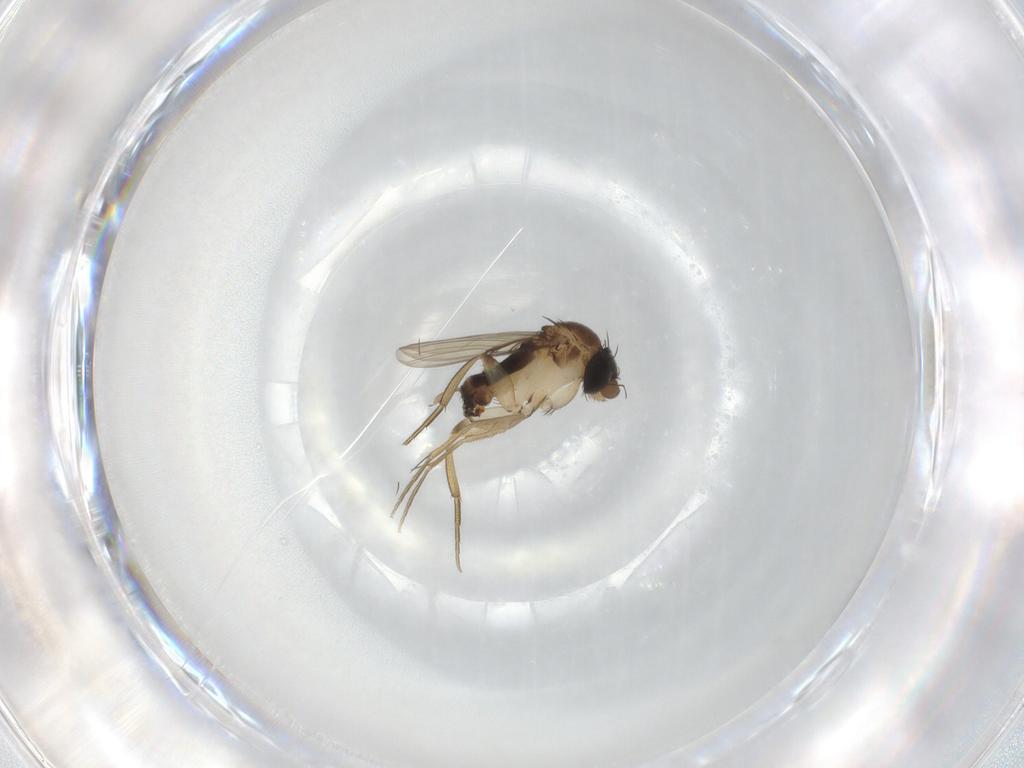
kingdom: Animalia
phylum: Arthropoda
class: Insecta
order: Diptera
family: Phoridae
